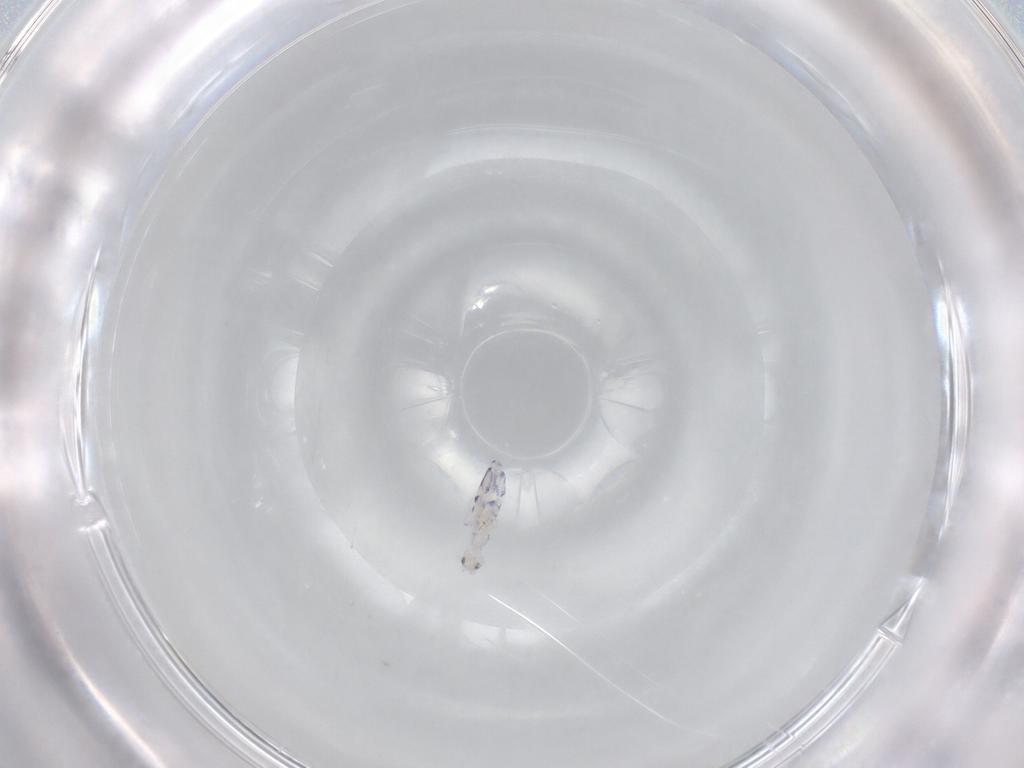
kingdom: Animalia
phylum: Arthropoda
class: Collembola
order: Entomobryomorpha
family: Entomobryidae
